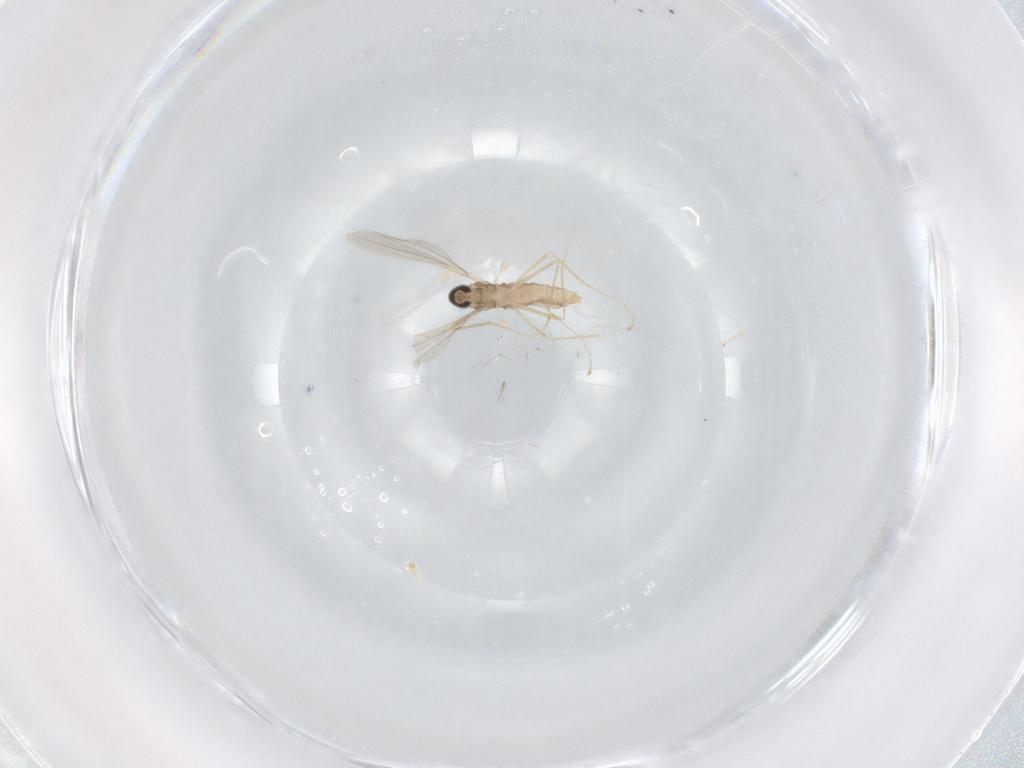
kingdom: Animalia
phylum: Arthropoda
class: Insecta
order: Diptera
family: Cecidomyiidae
